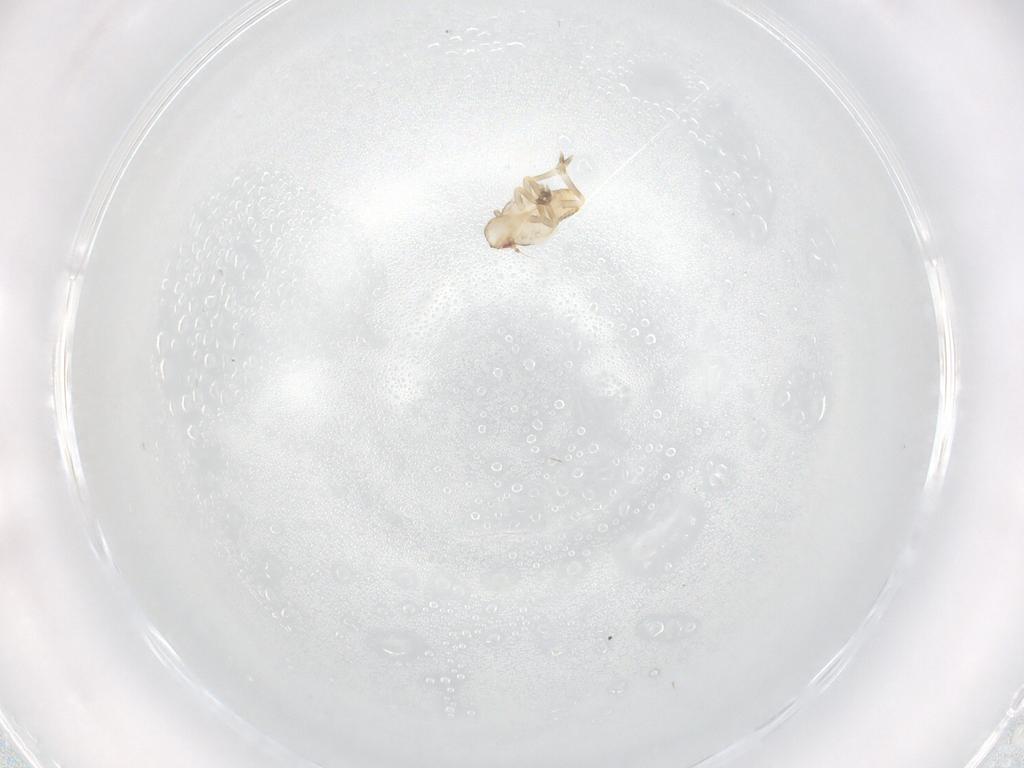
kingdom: Animalia
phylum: Arthropoda
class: Insecta
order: Hemiptera
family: Flatidae
